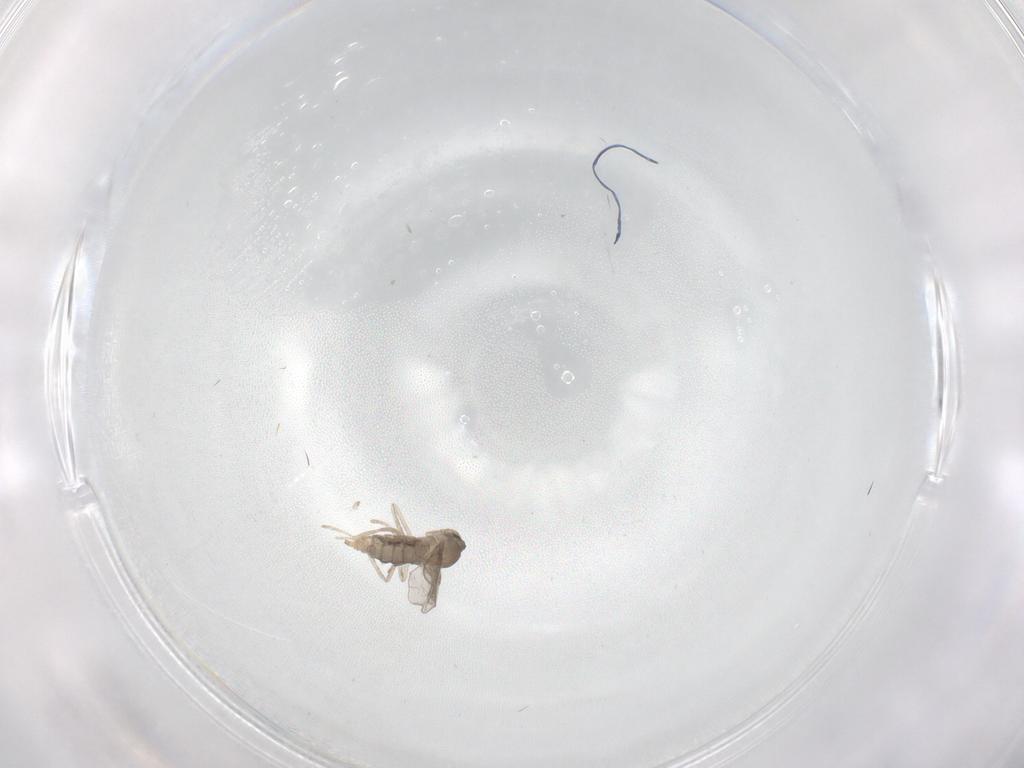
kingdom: Animalia
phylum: Arthropoda
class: Insecta
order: Diptera
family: Cecidomyiidae
